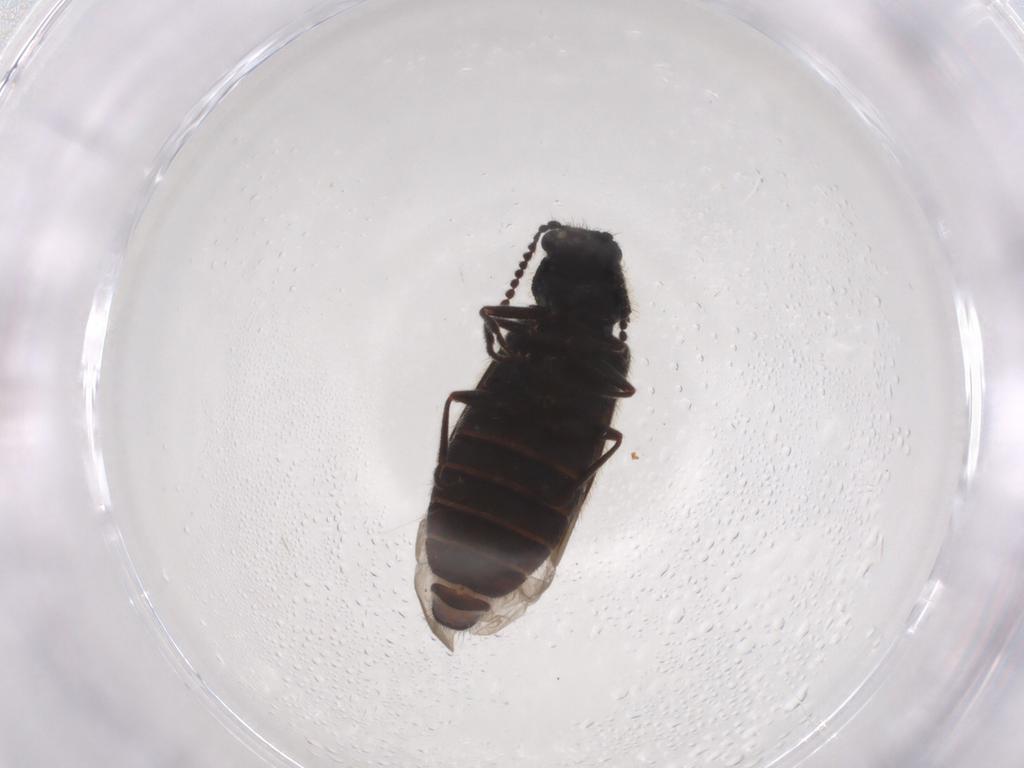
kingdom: Animalia
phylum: Arthropoda
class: Insecta
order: Coleoptera
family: Melyridae
